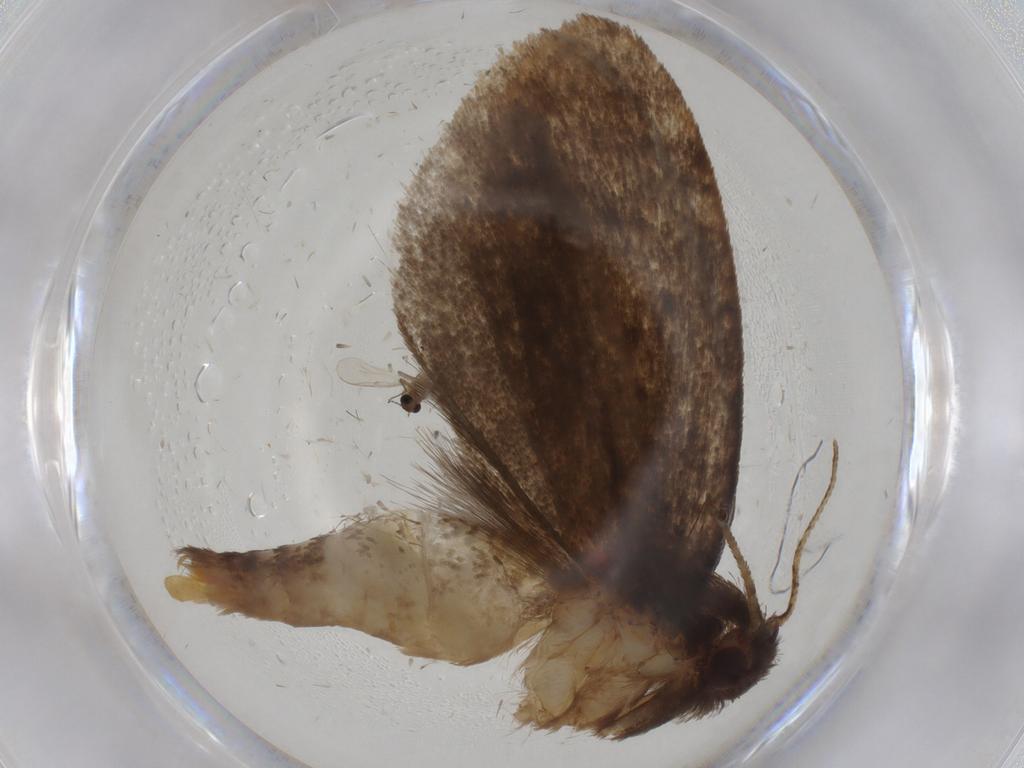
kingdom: Animalia
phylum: Arthropoda
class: Insecta
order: Lepidoptera
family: Tineidae
